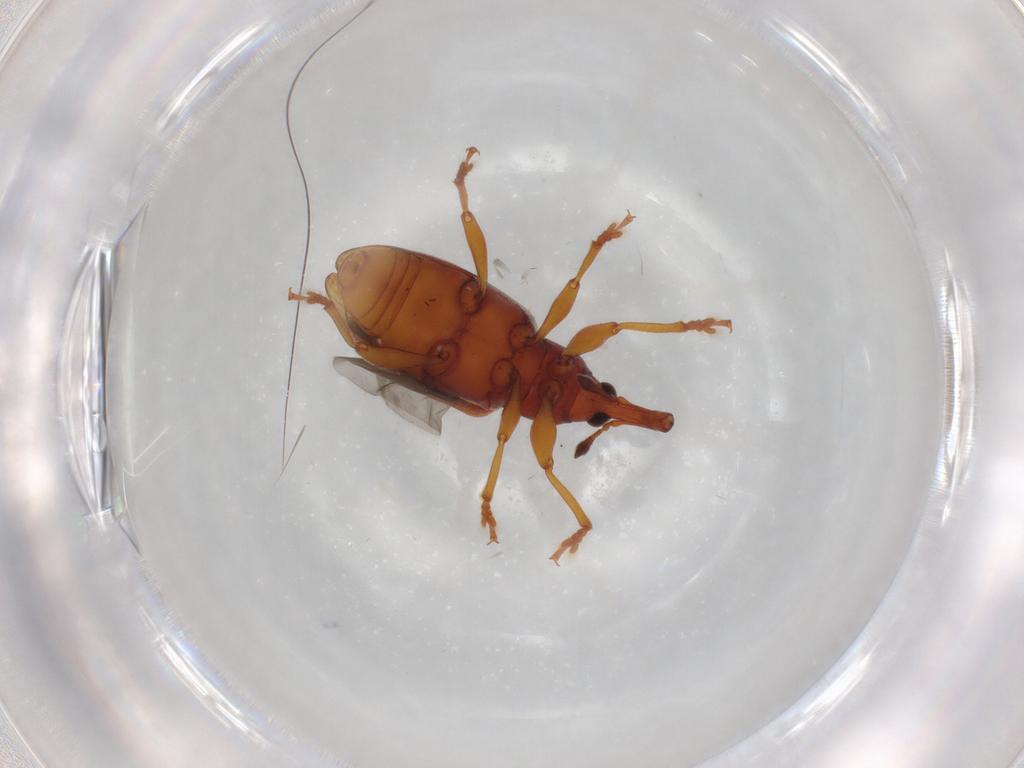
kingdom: Animalia
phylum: Arthropoda
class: Insecta
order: Coleoptera
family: Curculionidae
